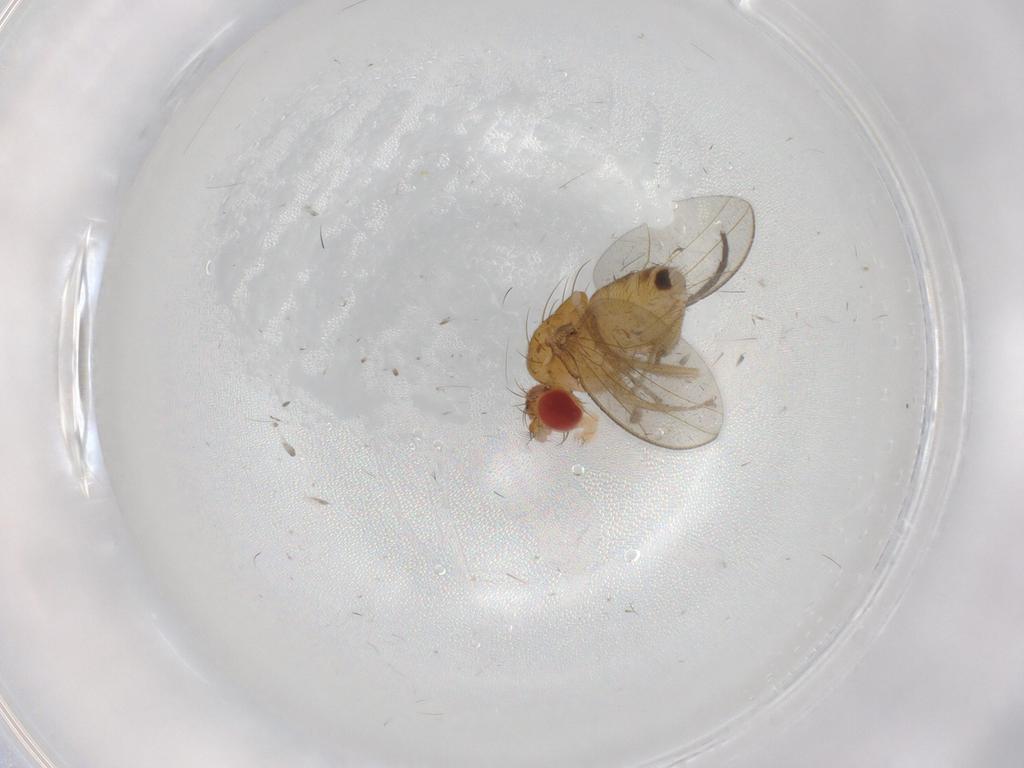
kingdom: Animalia
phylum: Arthropoda
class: Insecta
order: Diptera
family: Drosophilidae
